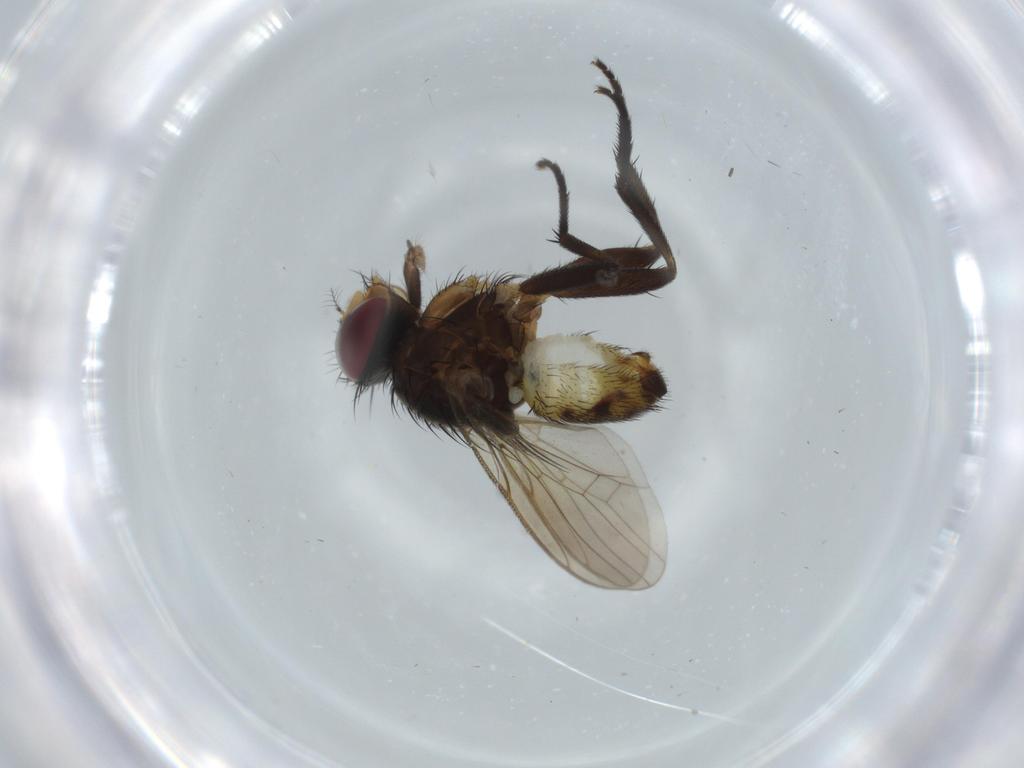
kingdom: Animalia
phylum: Arthropoda
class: Insecta
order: Diptera
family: Anthomyiidae
